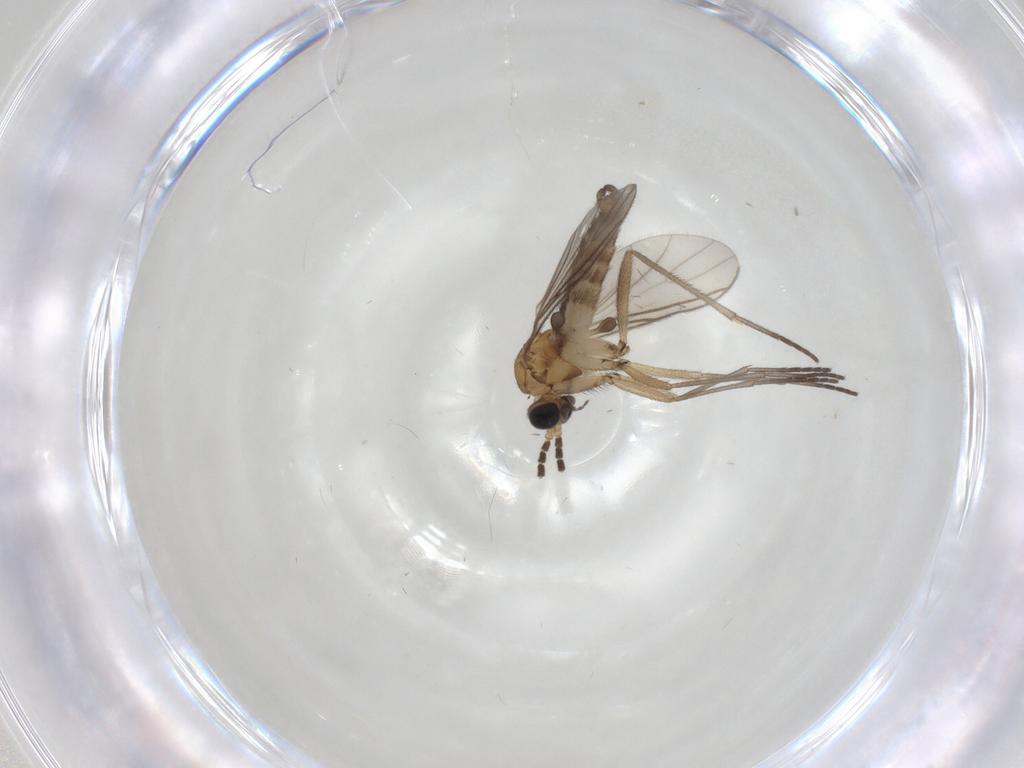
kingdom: Animalia
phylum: Arthropoda
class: Insecta
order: Diptera
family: Sciaridae
